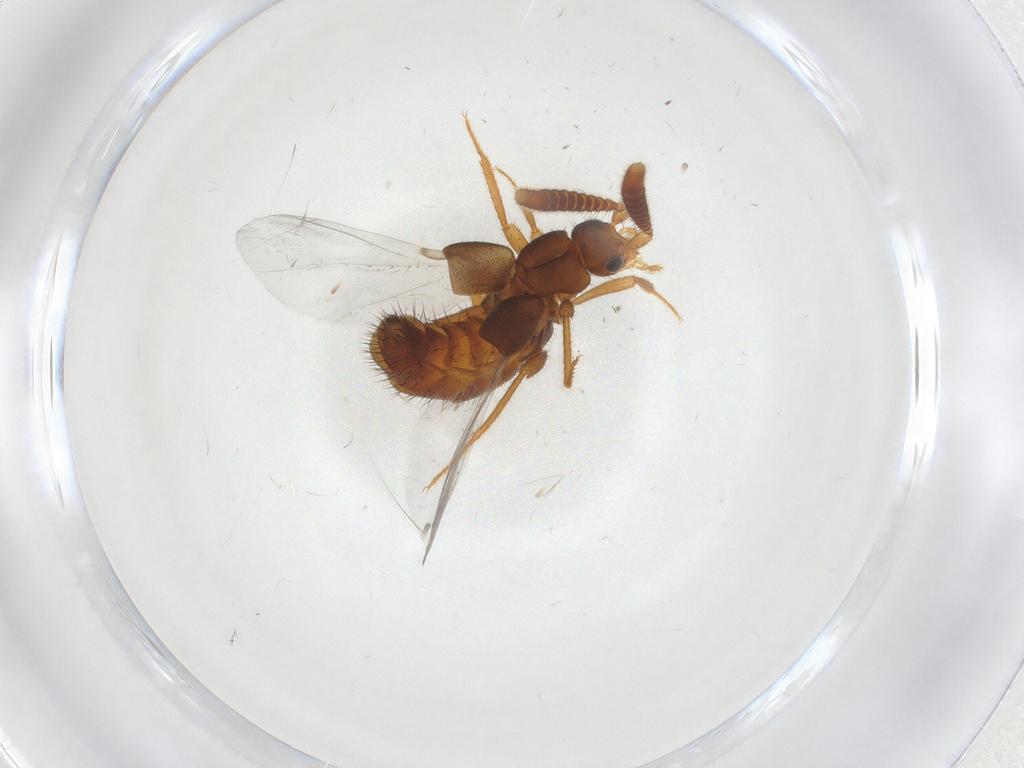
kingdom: Animalia
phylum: Arthropoda
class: Insecta
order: Coleoptera
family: Staphylinidae
